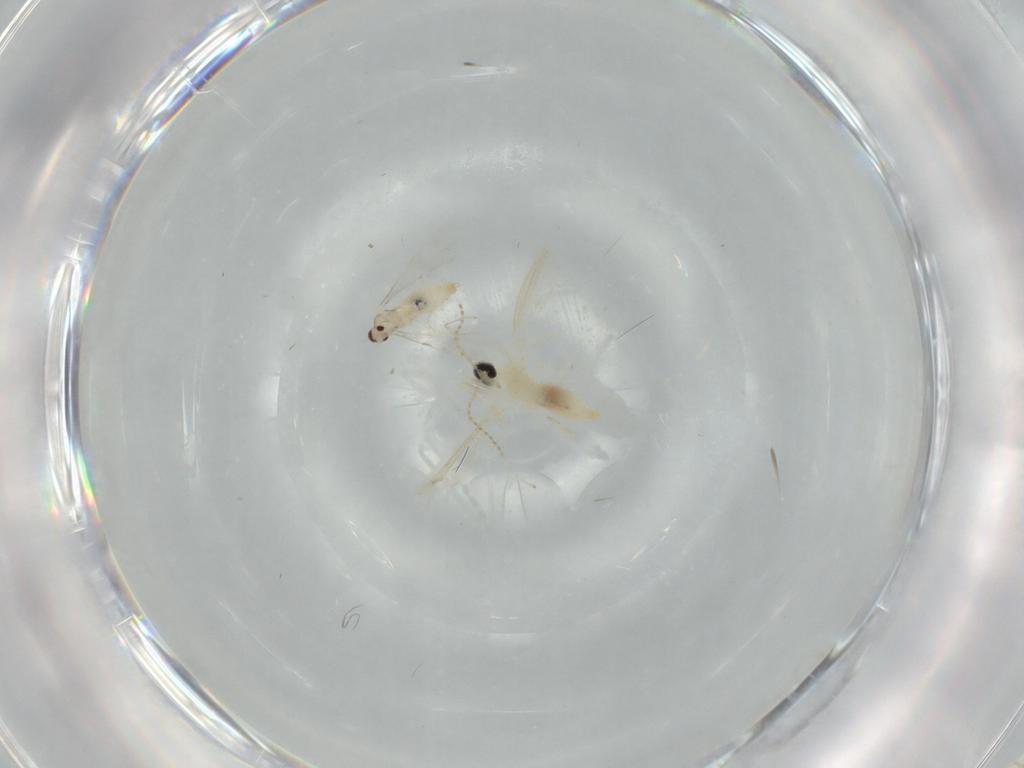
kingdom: Animalia
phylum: Arthropoda
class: Insecta
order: Diptera
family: Cecidomyiidae
